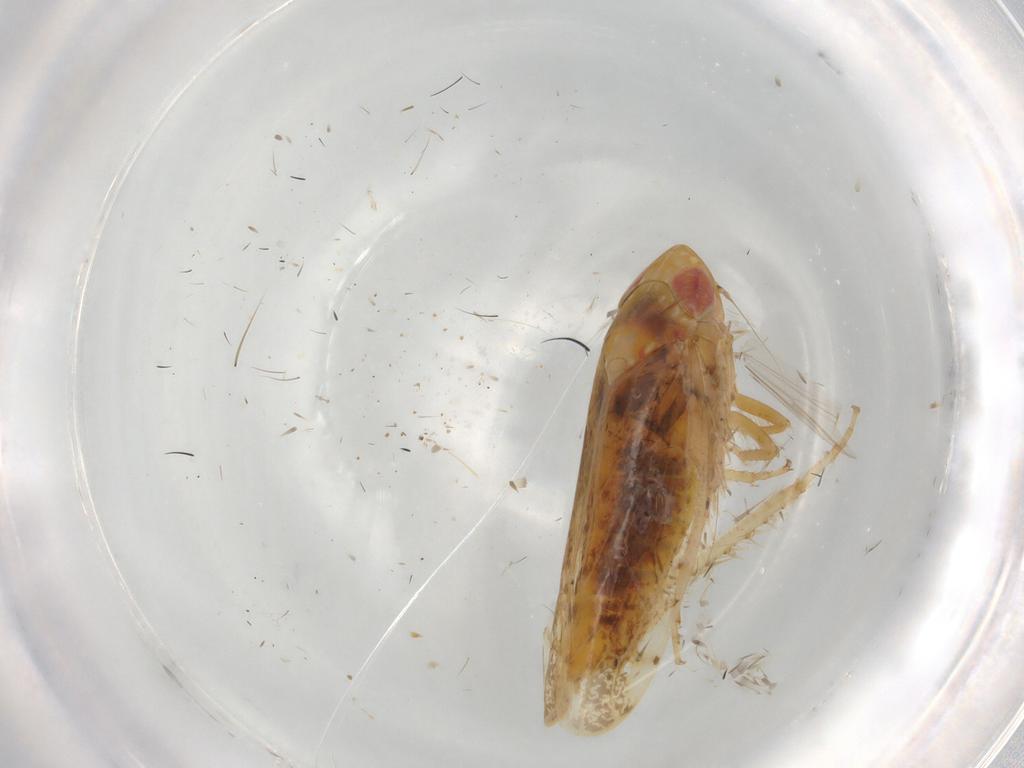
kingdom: Animalia
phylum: Arthropoda
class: Insecta
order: Hemiptera
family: Cicadellidae
